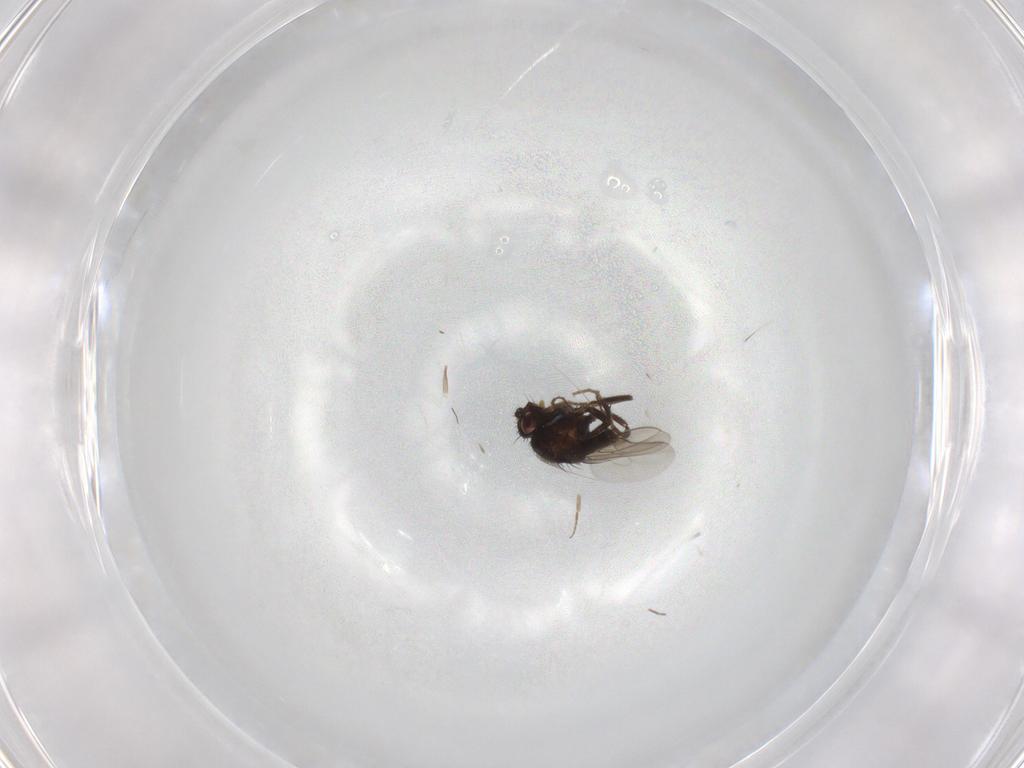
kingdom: Animalia
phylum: Arthropoda
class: Insecta
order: Diptera
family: Sphaeroceridae
